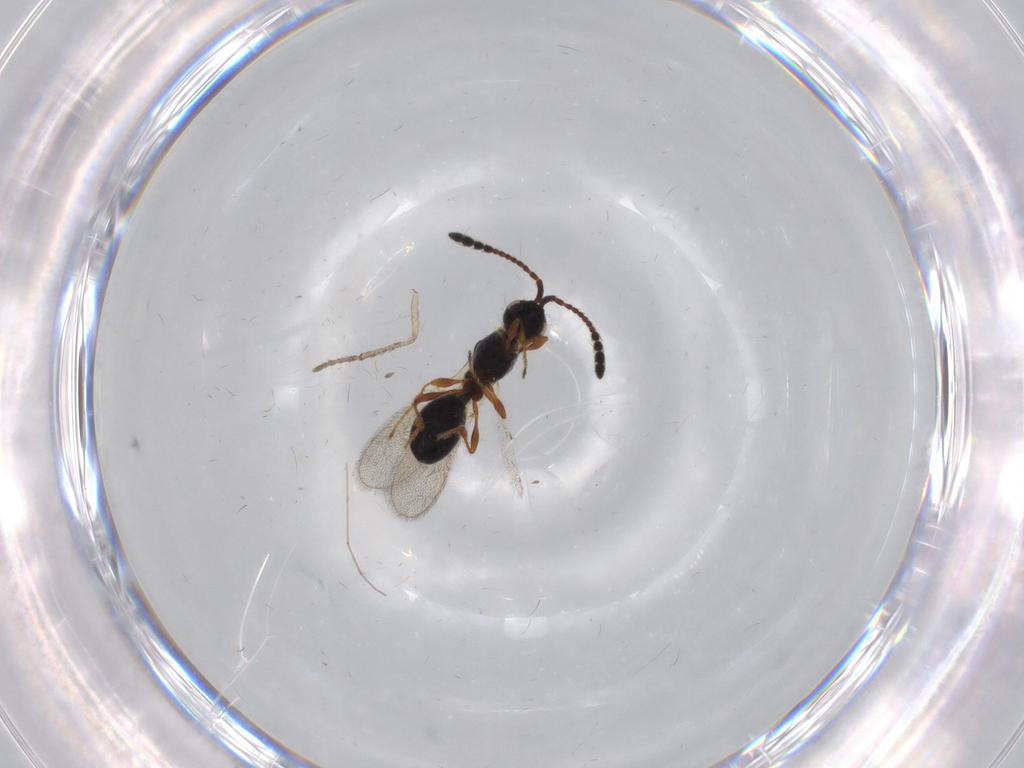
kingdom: Animalia
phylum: Arthropoda
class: Insecta
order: Hymenoptera
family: Diapriidae
